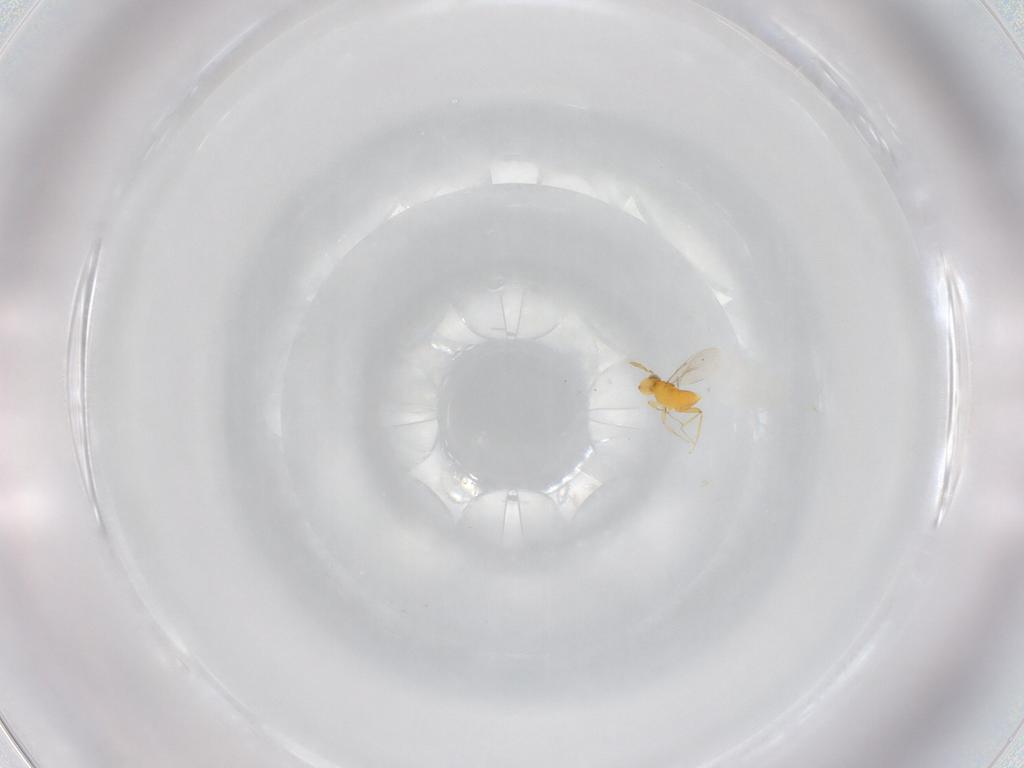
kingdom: Animalia
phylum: Arthropoda
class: Insecta
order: Hymenoptera
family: Aphelinidae
